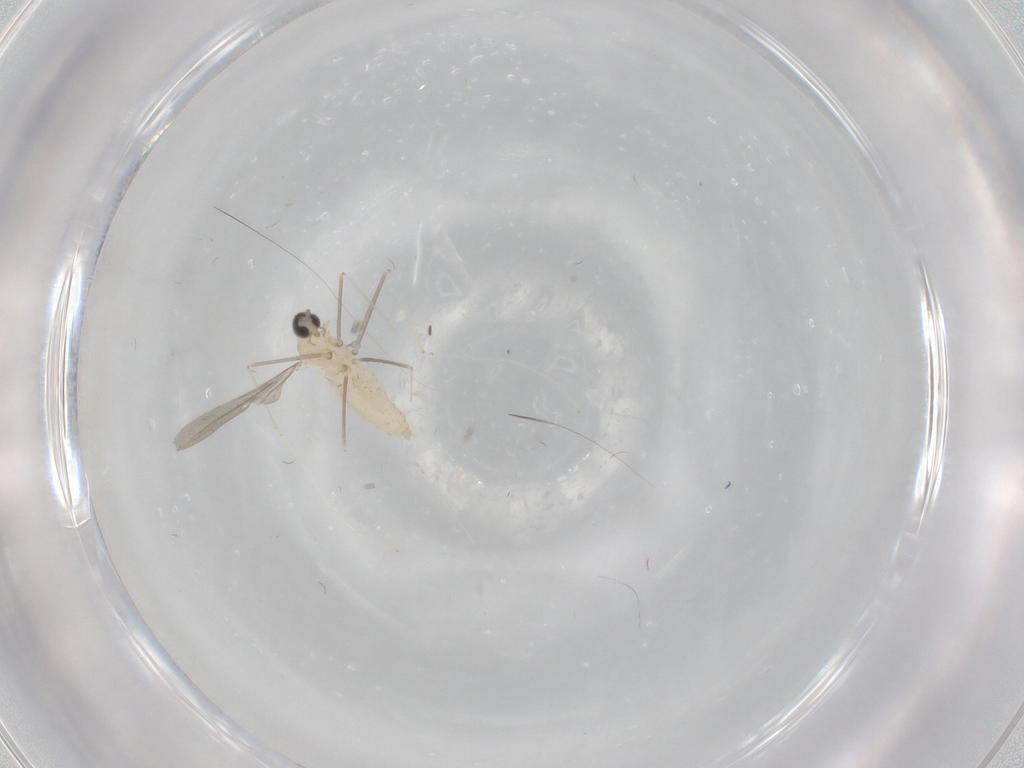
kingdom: Animalia
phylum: Arthropoda
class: Insecta
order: Diptera
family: Cecidomyiidae
